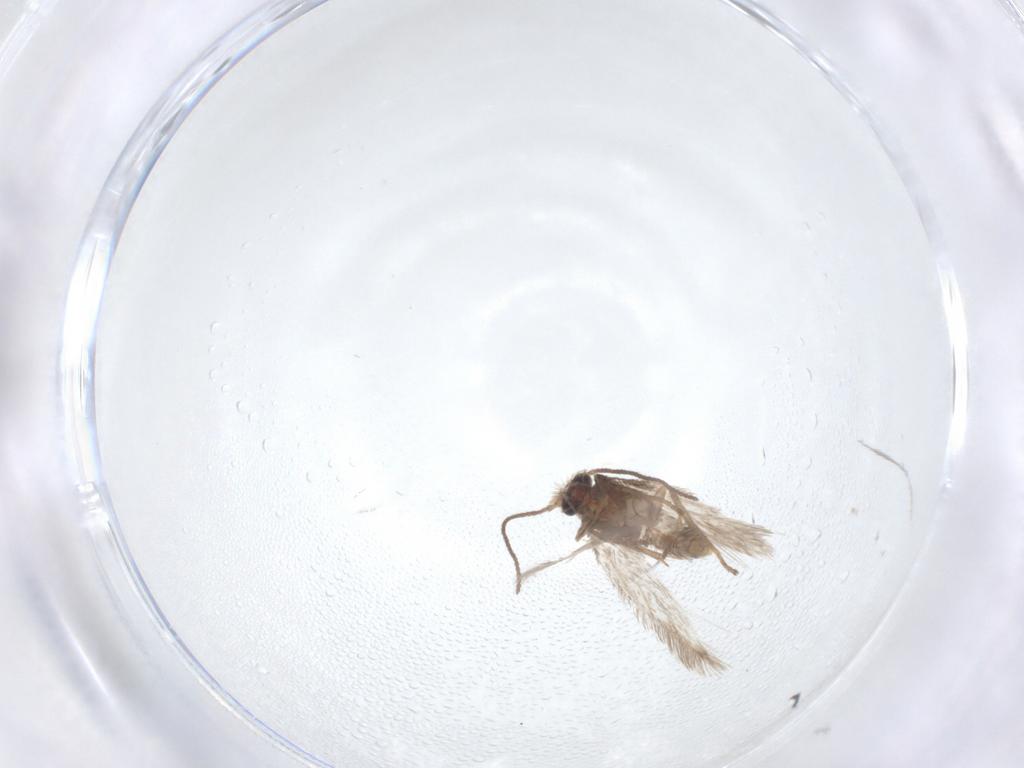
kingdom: Animalia
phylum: Arthropoda
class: Insecta
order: Lepidoptera
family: Nepticulidae
